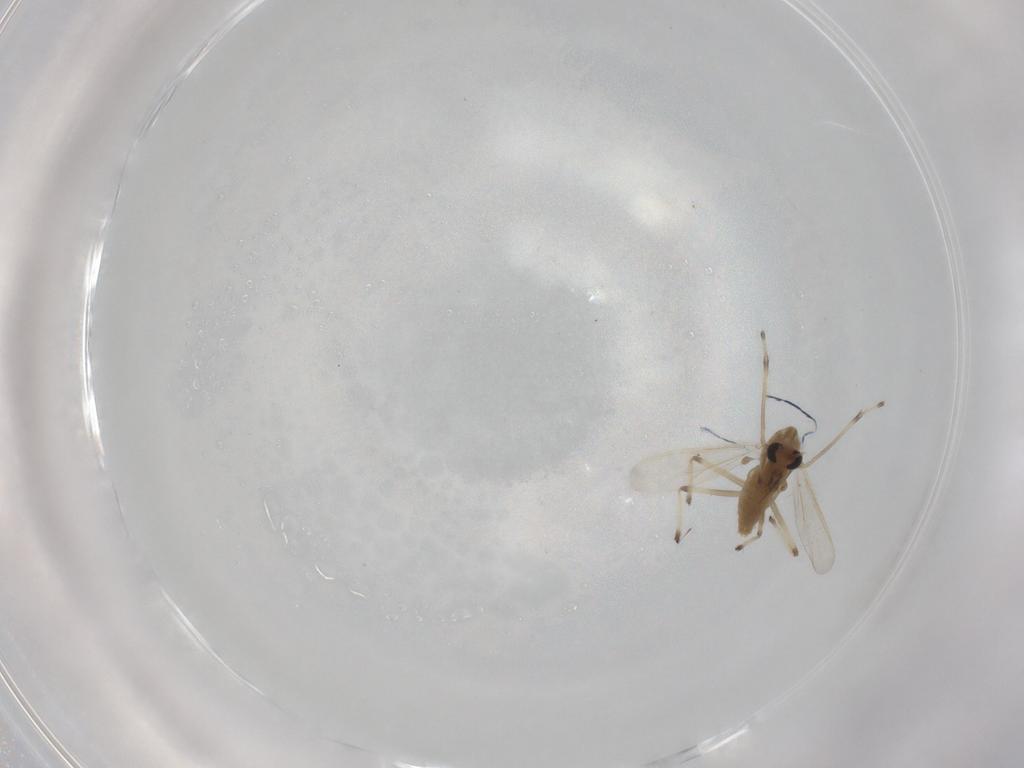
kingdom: Animalia
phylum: Arthropoda
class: Insecta
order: Diptera
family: Chironomidae
